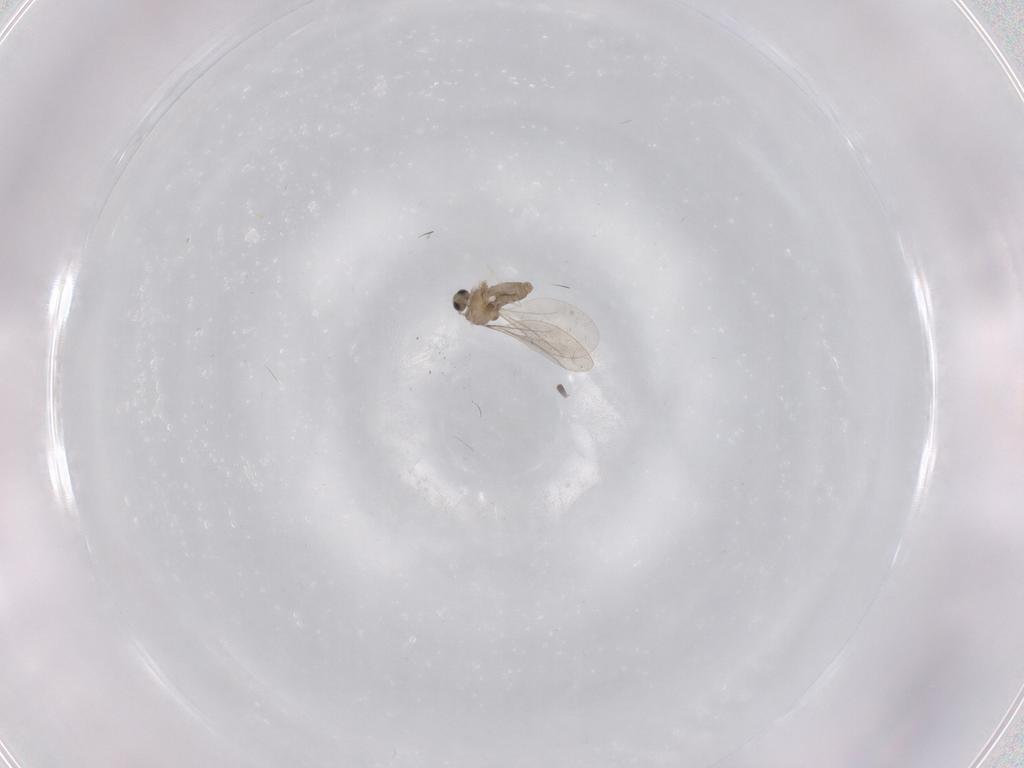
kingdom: Animalia
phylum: Arthropoda
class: Insecta
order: Diptera
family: Cecidomyiidae
